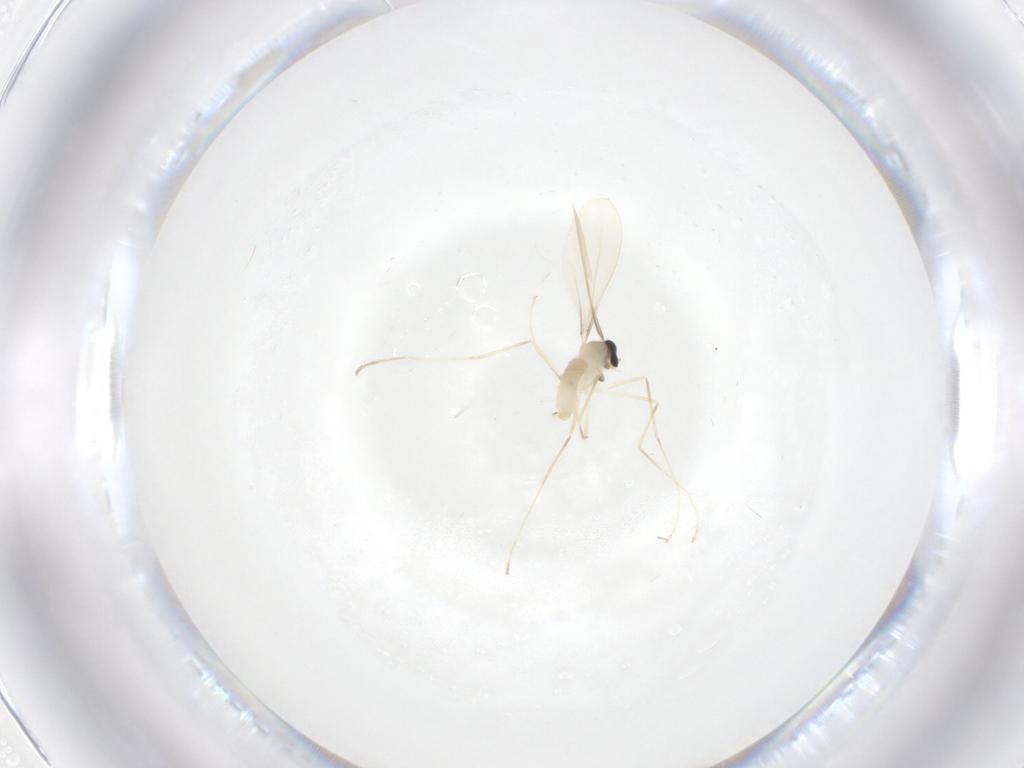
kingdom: Animalia
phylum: Arthropoda
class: Insecta
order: Diptera
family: Cecidomyiidae
